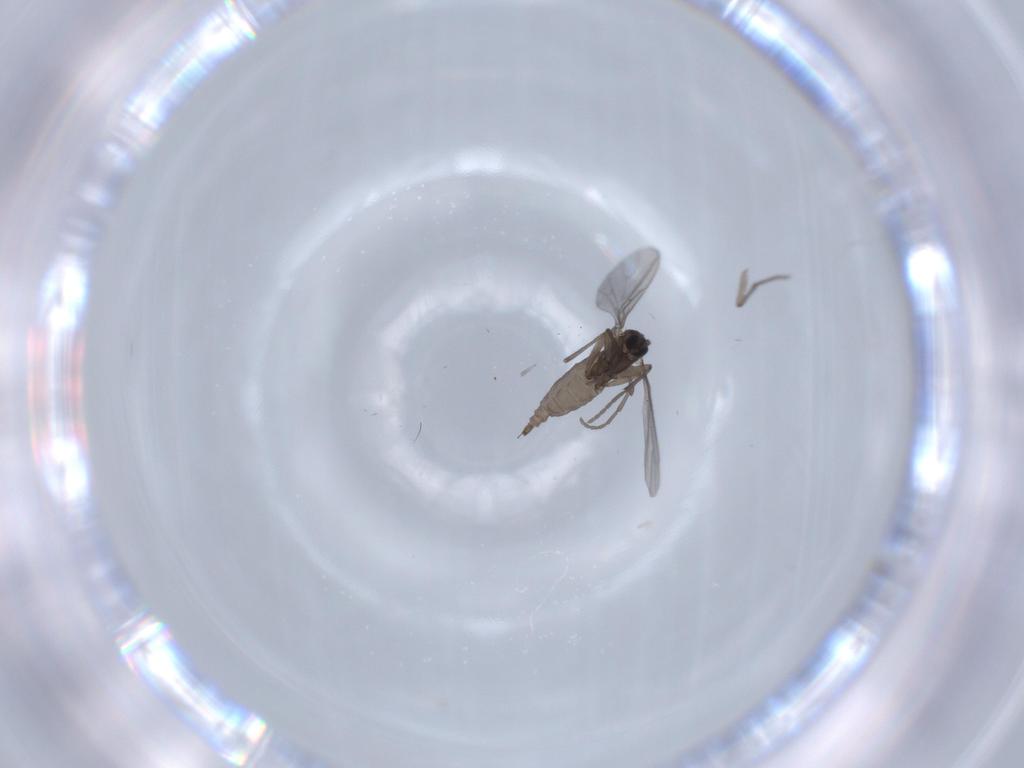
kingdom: Animalia
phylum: Arthropoda
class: Insecta
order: Diptera
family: Sciaridae
